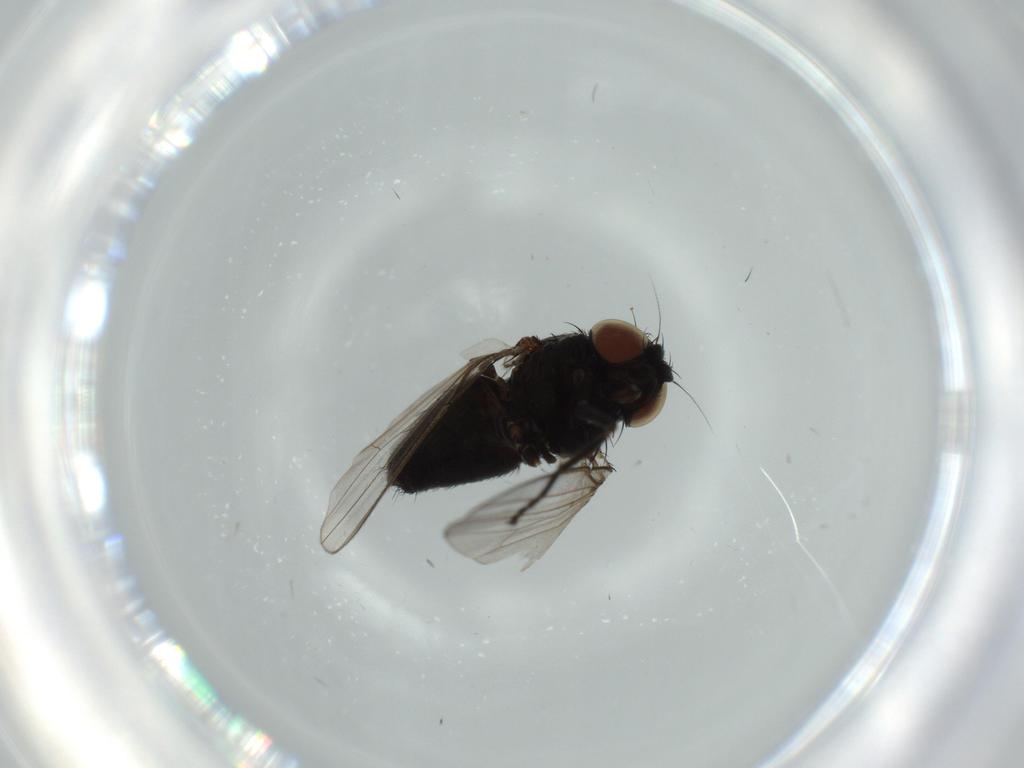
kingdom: Animalia
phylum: Arthropoda
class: Insecta
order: Diptera
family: Milichiidae
